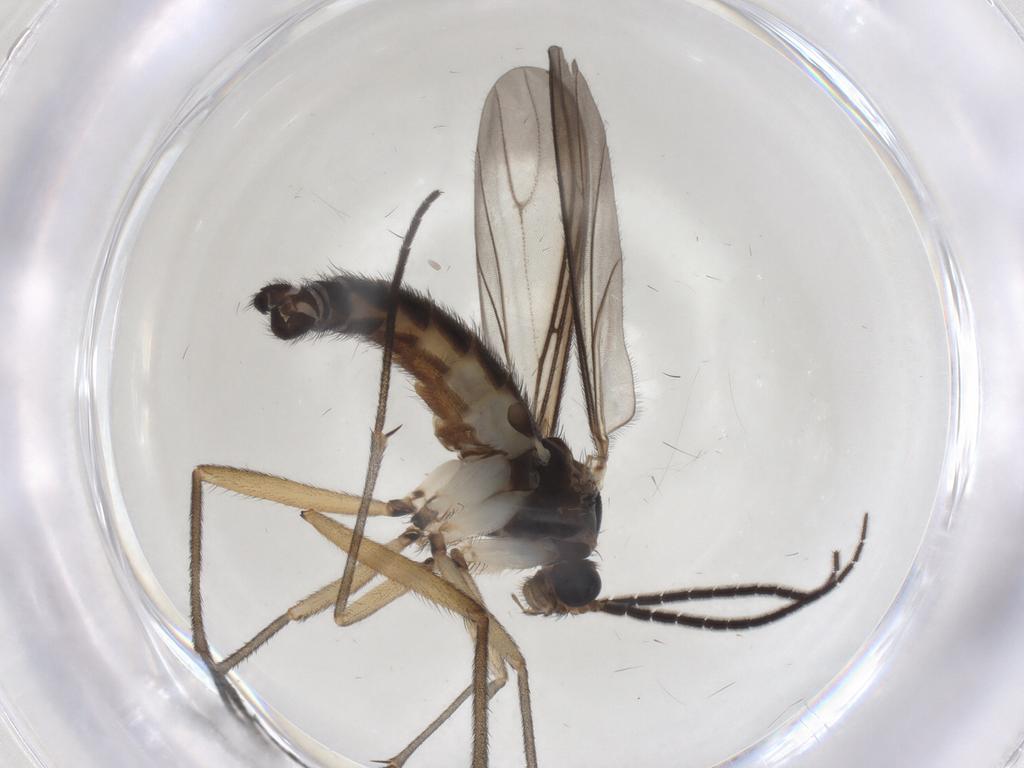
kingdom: Animalia
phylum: Arthropoda
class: Insecta
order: Diptera
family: Sciaridae
